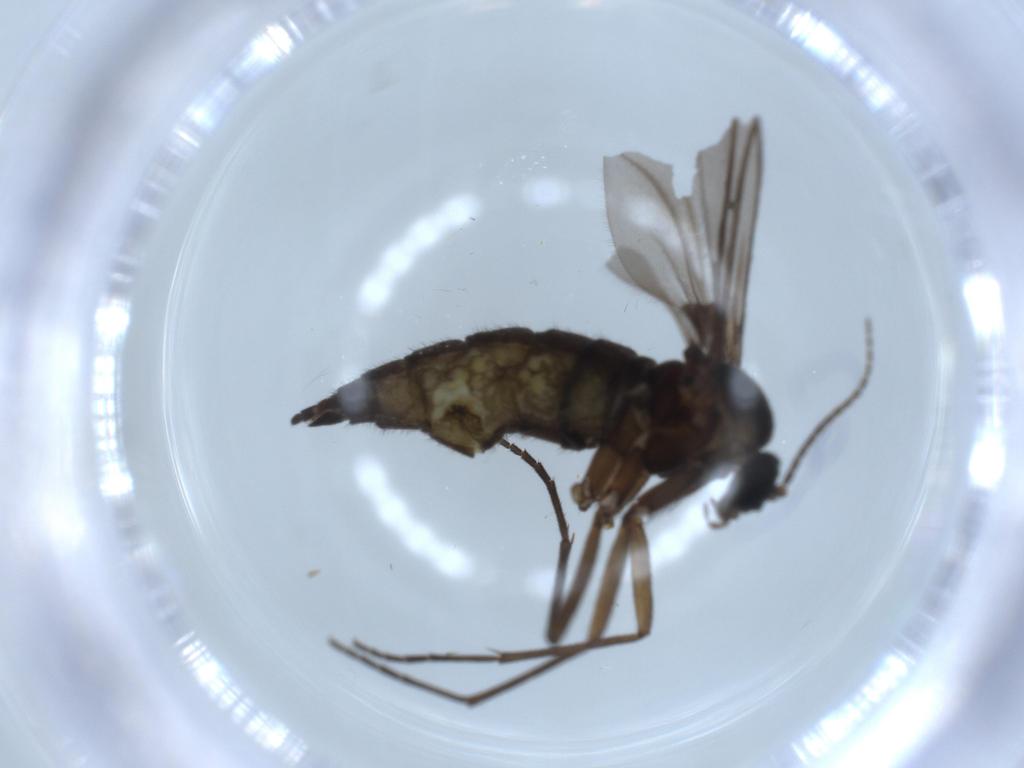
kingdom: Animalia
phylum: Arthropoda
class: Insecta
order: Diptera
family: Sciaridae
